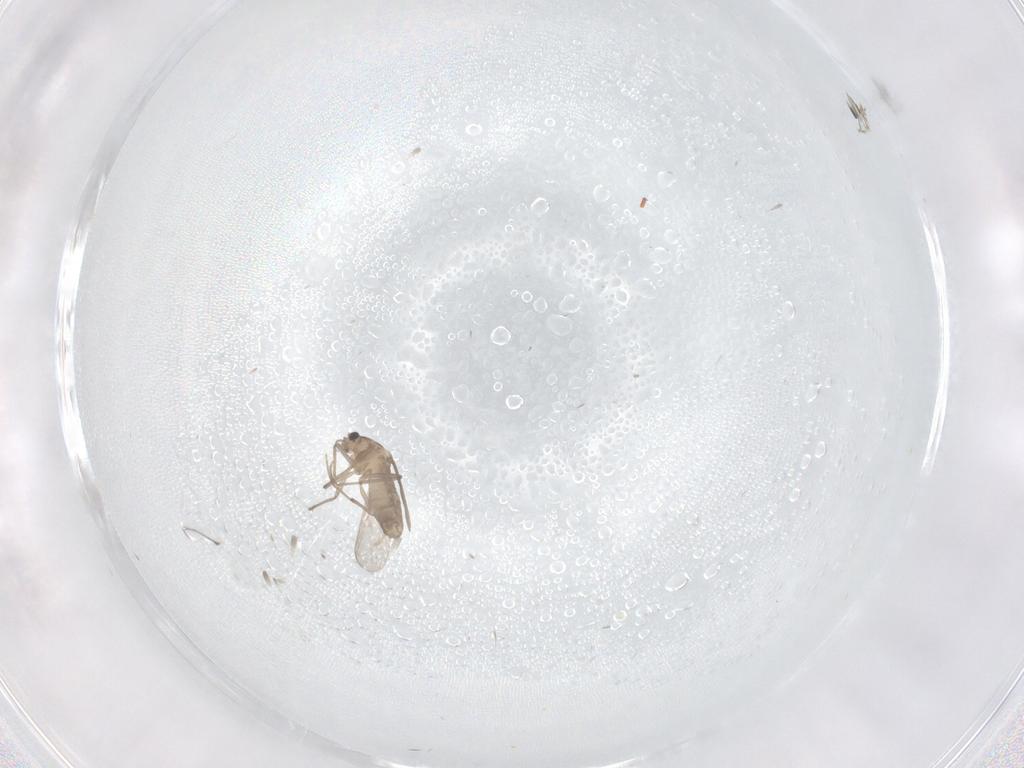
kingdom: Animalia
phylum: Arthropoda
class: Insecta
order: Diptera
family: Chironomidae
